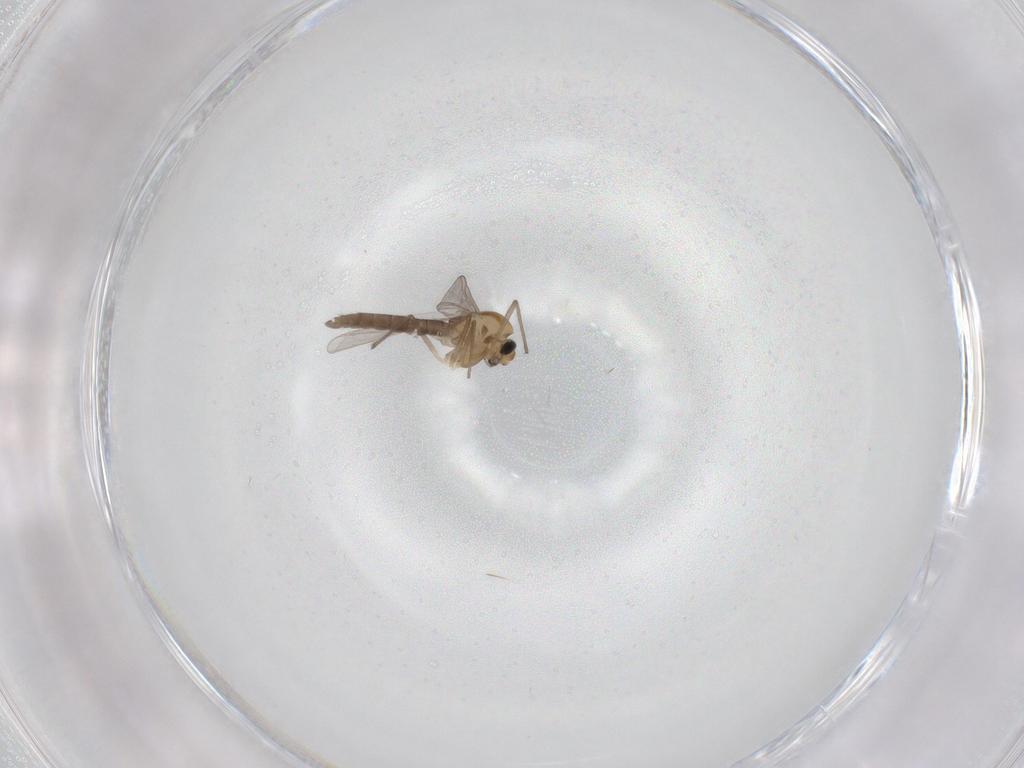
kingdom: Animalia
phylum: Arthropoda
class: Insecta
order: Diptera
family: Chironomidae
